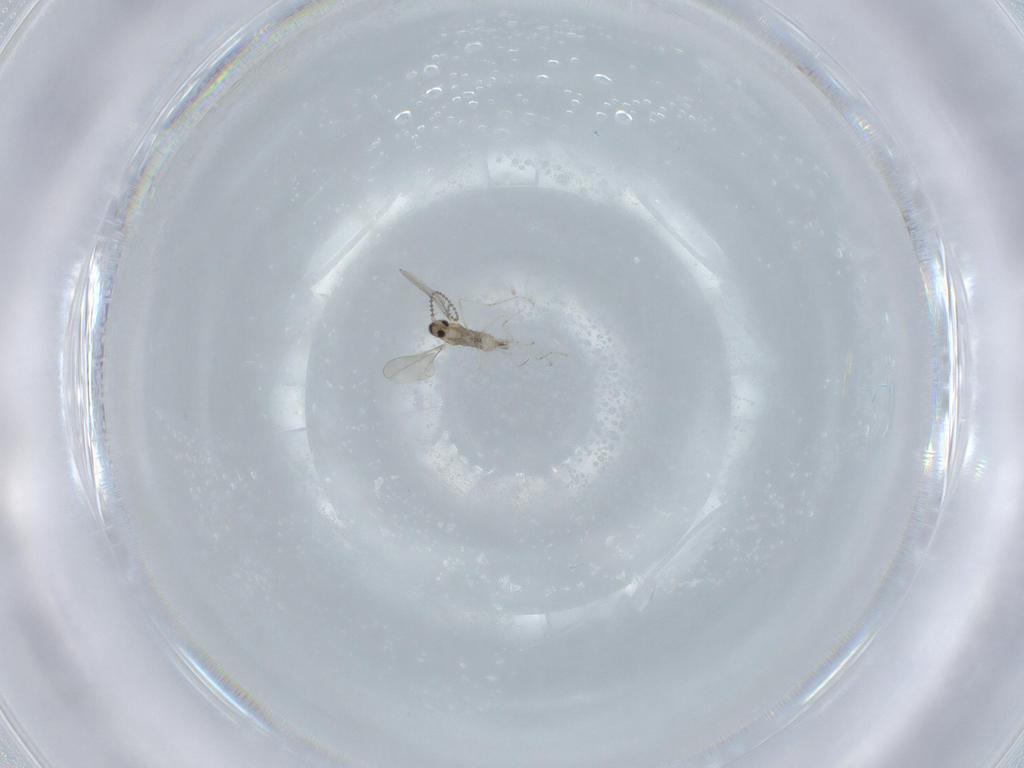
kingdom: Animalia
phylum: Arthropoda
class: Insecta
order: Diptera
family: Cecidomyiidae
